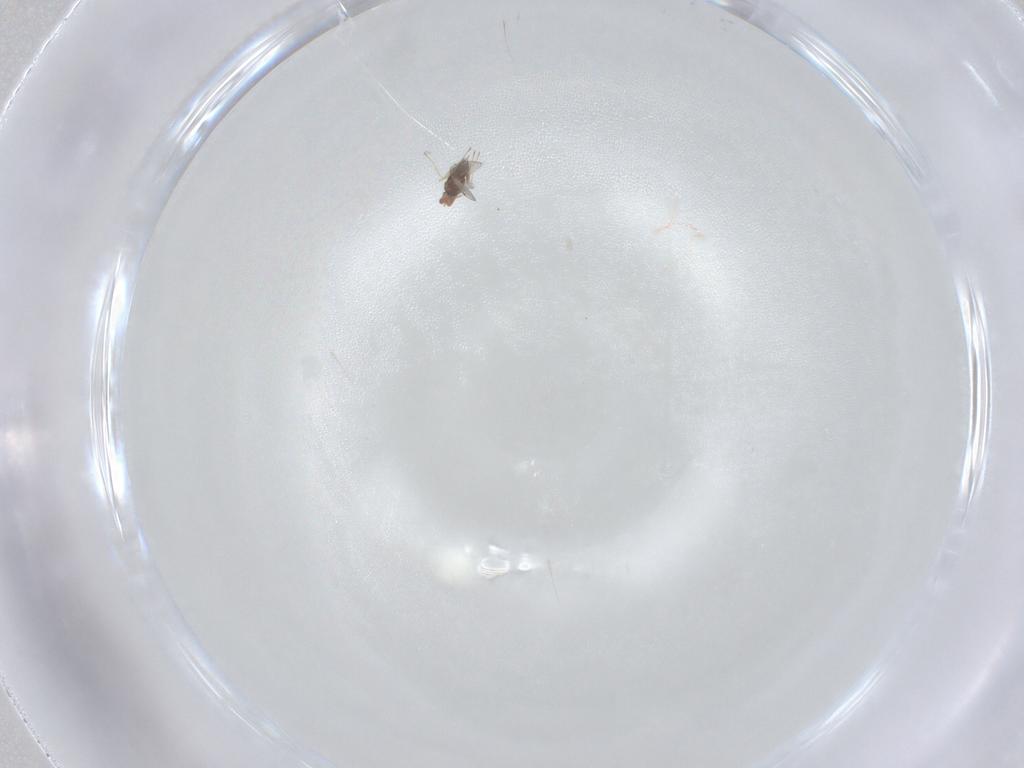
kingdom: Animalia
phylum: Arthropoda
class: Insecta
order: Hymenoptera
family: Trichogrammatidae
